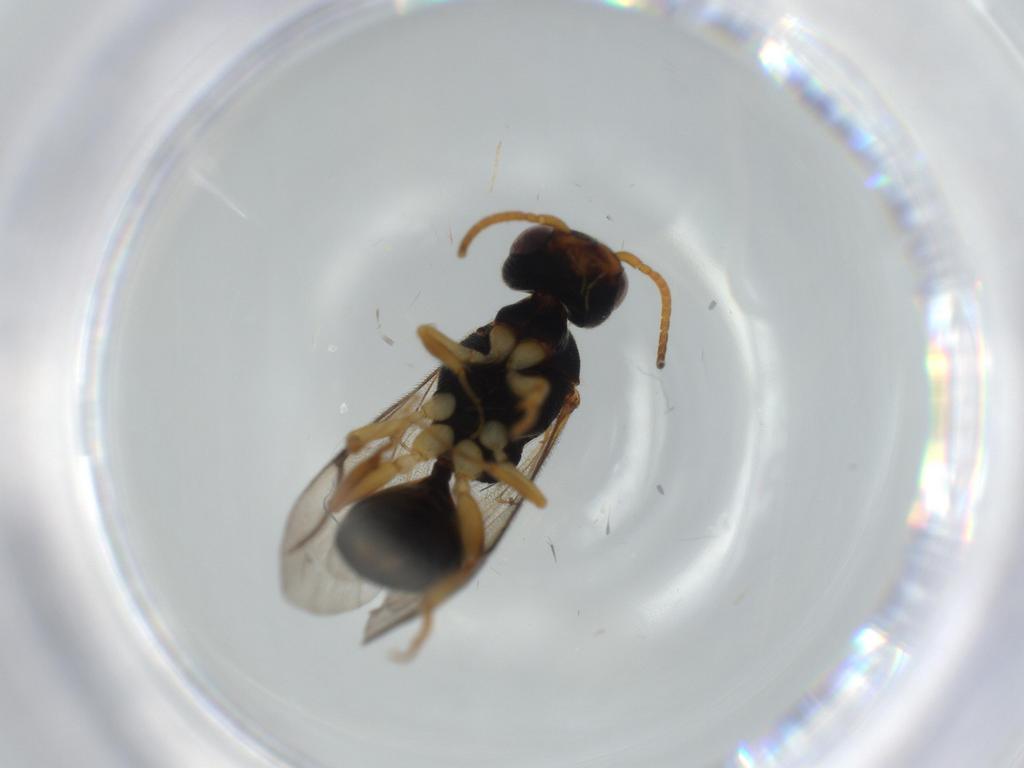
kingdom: Animalia
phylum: Arthropoda
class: Insecta
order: Hymenoptera
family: Bethylidae
